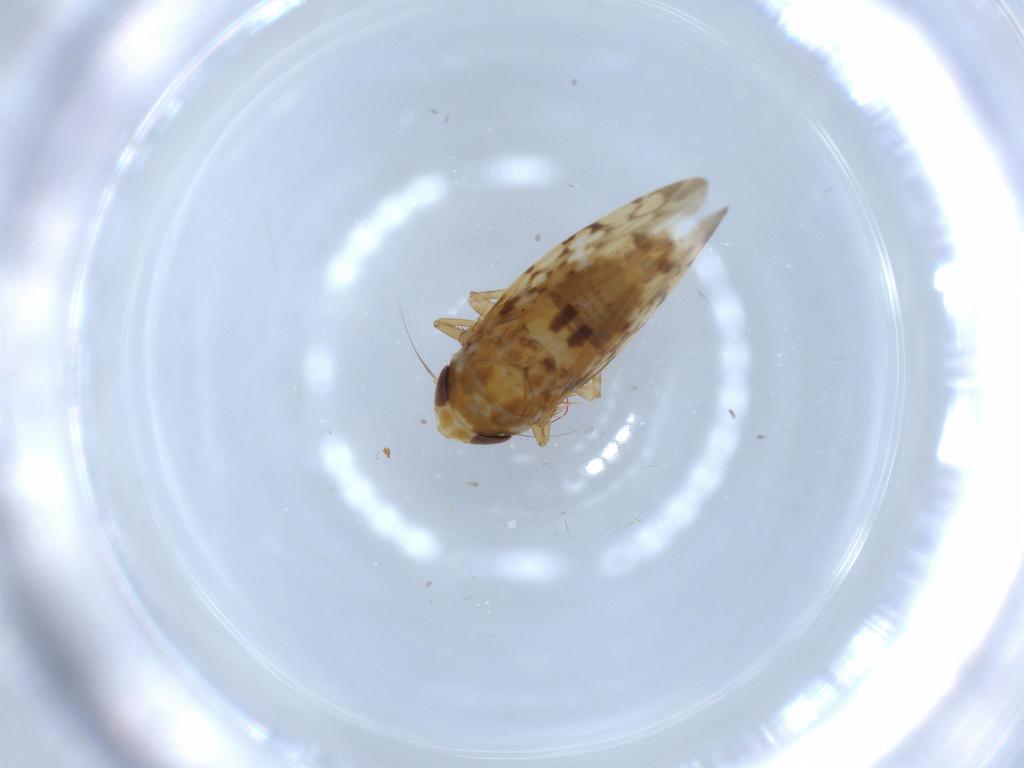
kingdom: Animalia
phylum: Arthropoda
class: Insecta
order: Hemiptera
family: Cicadellidae
